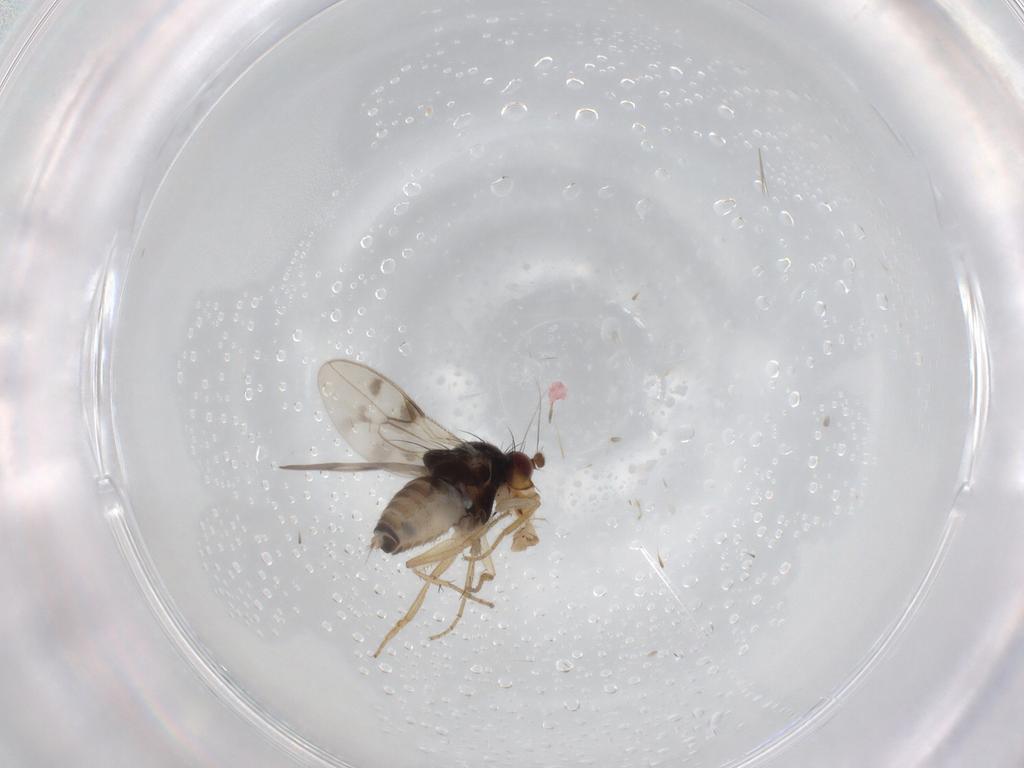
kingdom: Animalia
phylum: Arthropoda
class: Insecta
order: Diptera
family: Sphaeroceridae
